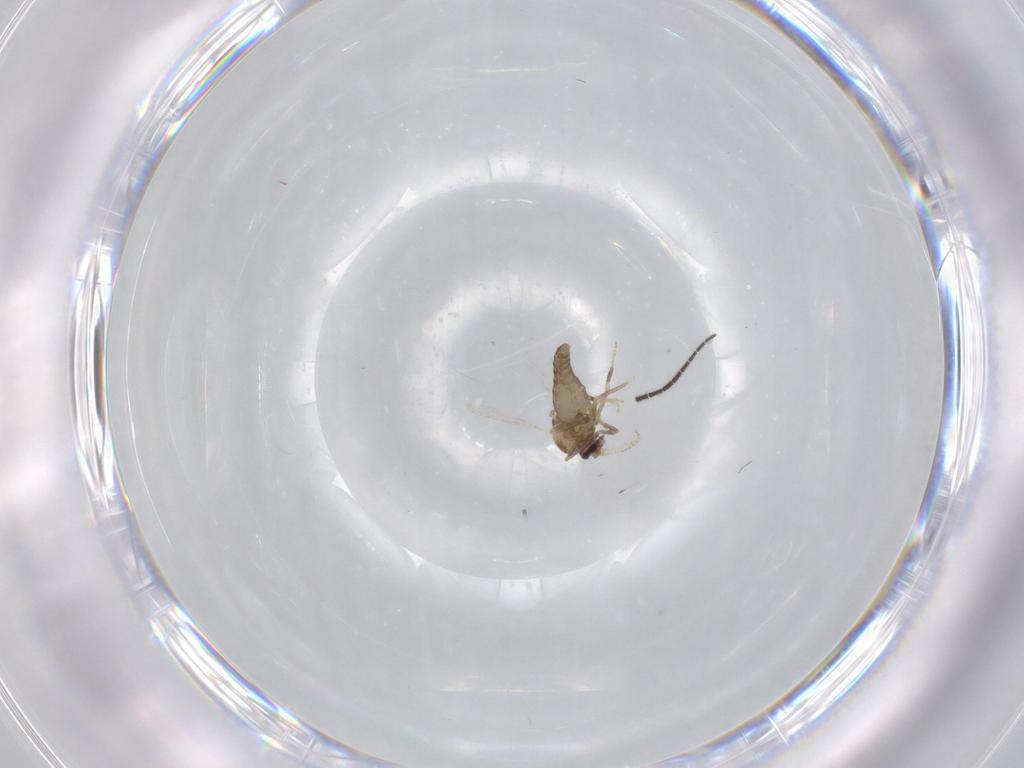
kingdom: Animalia
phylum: Arthropoda
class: Insecta
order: Diptera
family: Ceratopogonidae
